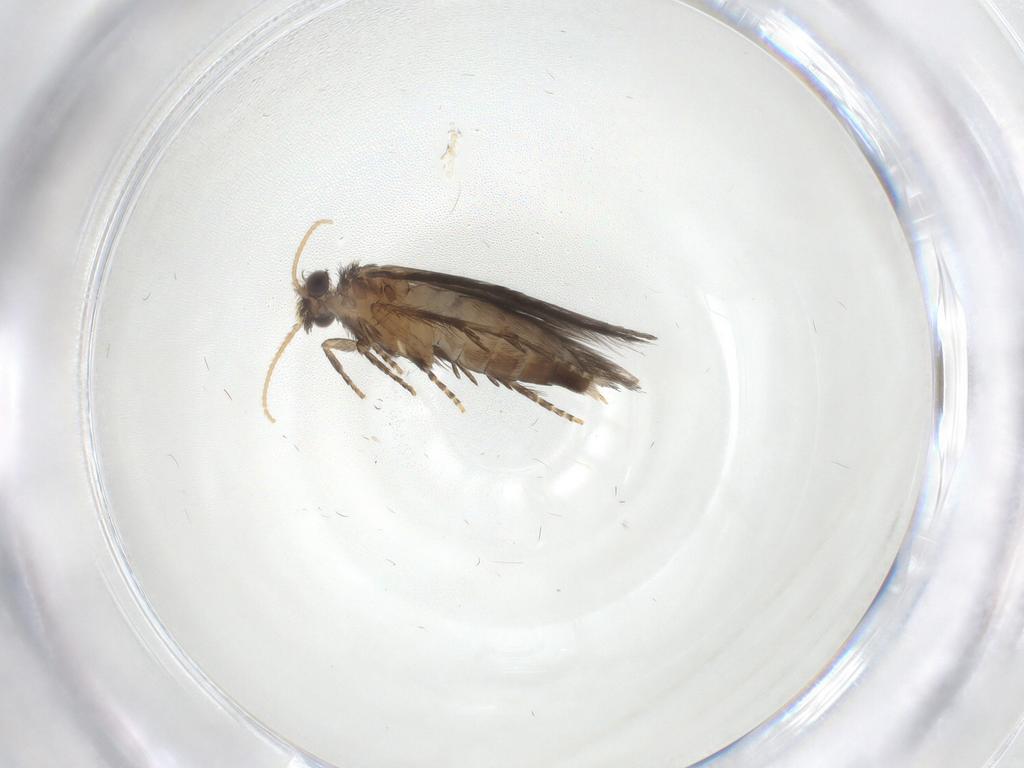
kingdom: Animalia
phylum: Arthropoda
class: Insecta
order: Trichoptera
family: Hydroptilidae
